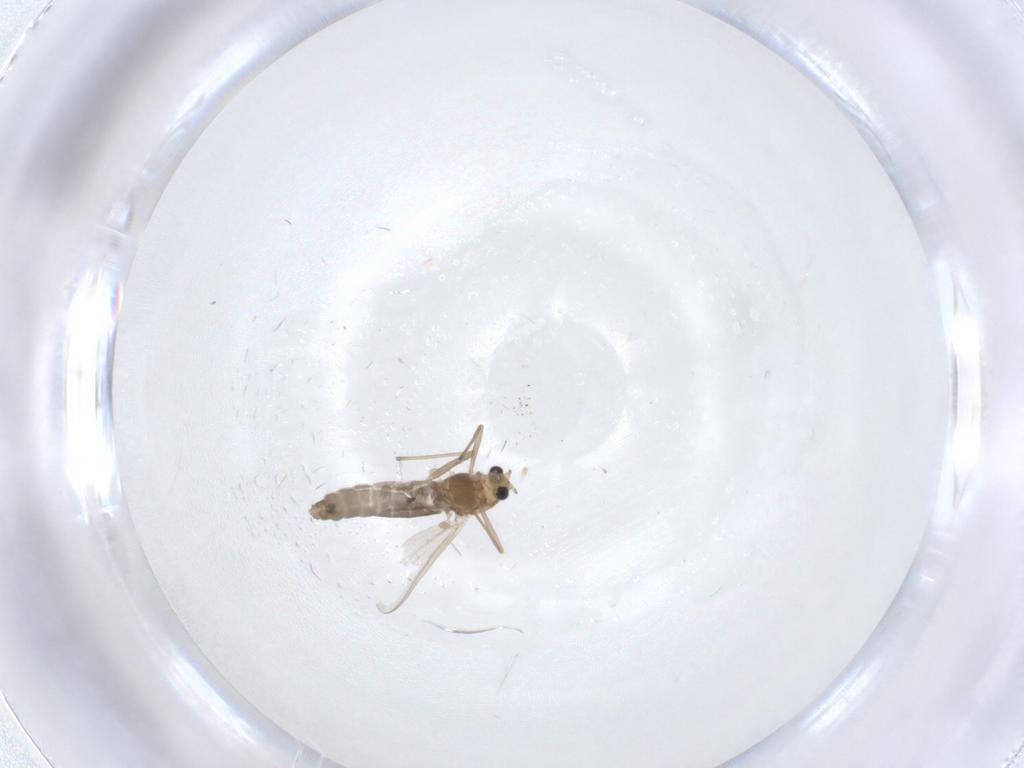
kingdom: Animalia
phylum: Arthropoda
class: Insecta
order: Diptera
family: Chironomidae
